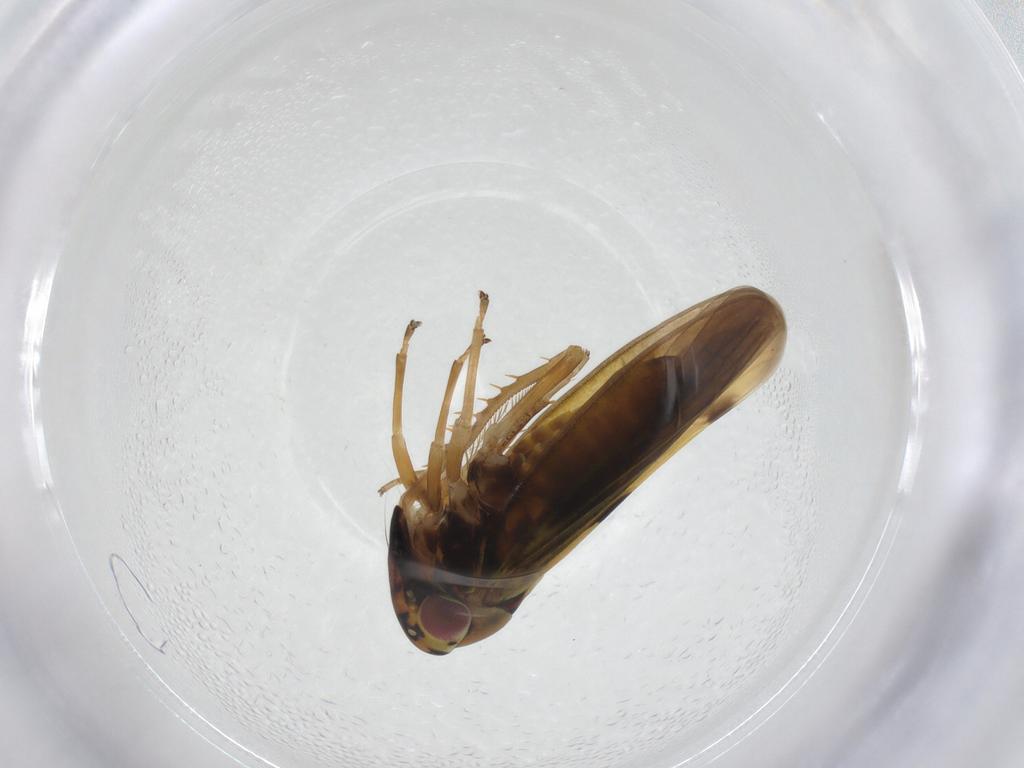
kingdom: Animalia
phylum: Arthropoda
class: Insecta
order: Hemiptera
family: Cicadellidae
